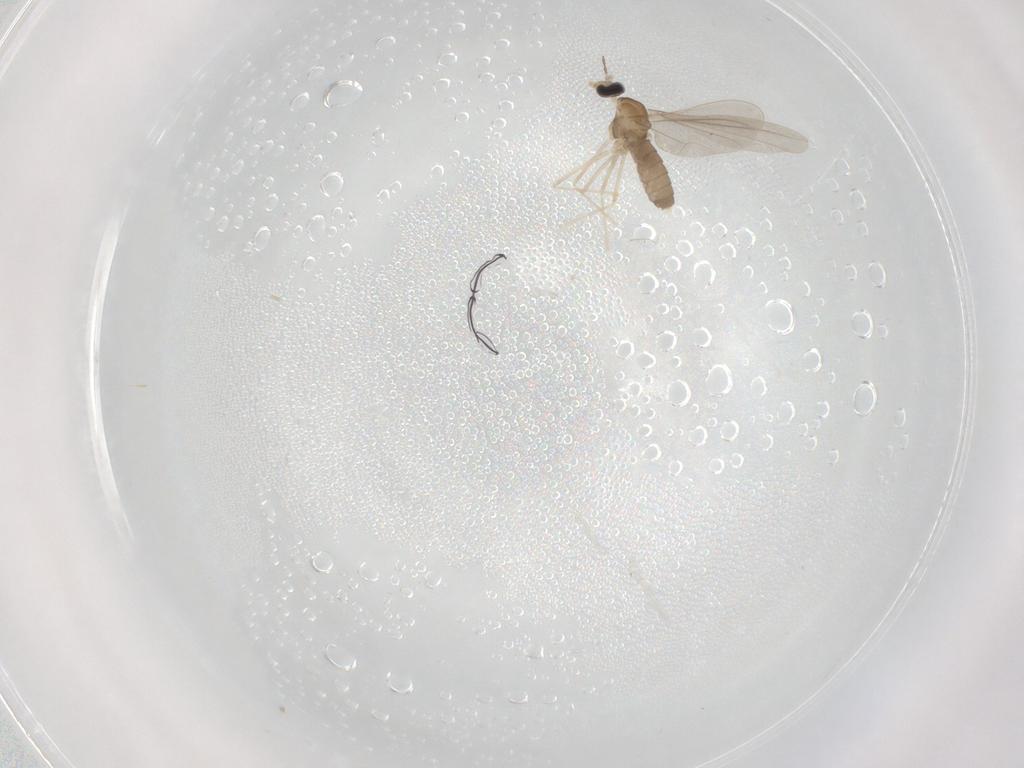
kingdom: Animalia
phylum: Arthropoda
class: Insecta
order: Diptera
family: Cecidomyiidae
